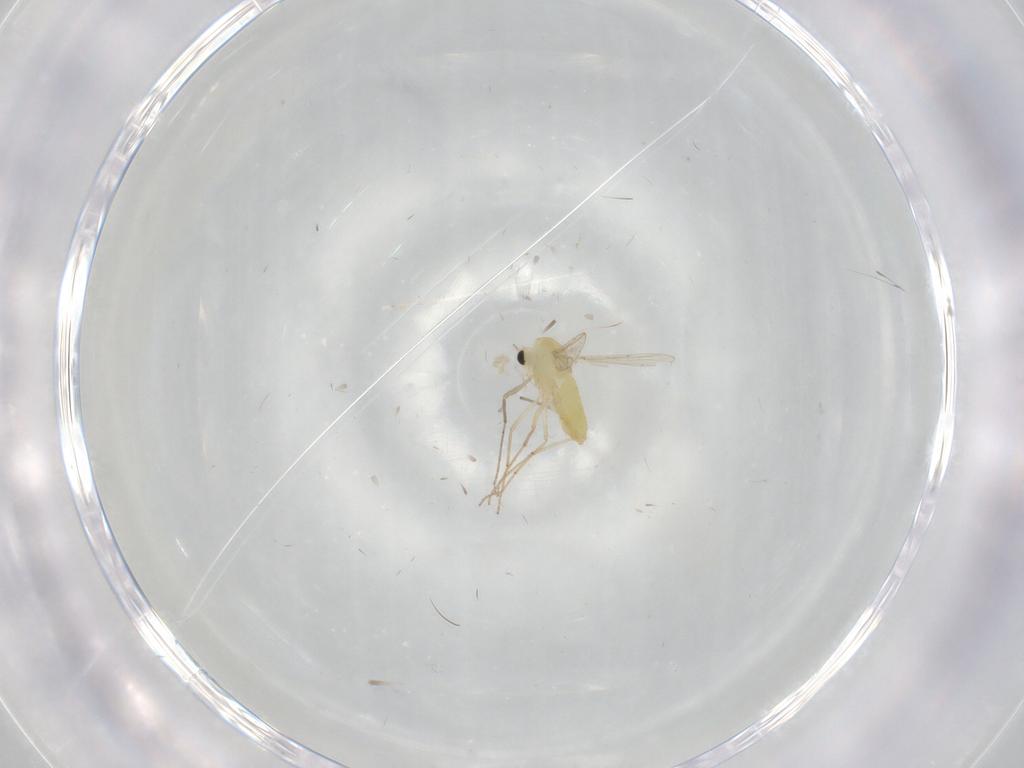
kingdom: Animalia
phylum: Arthropoda
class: Insecta
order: Diptera
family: Chironomidae
